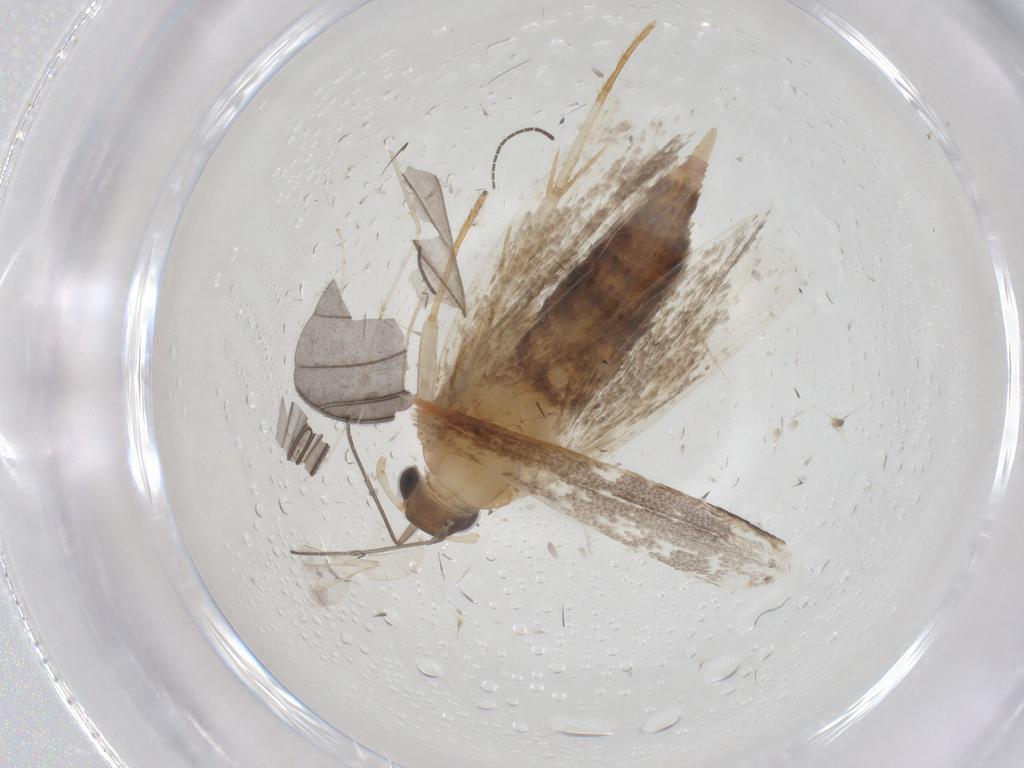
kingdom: Animalia
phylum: Arthropoda
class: Insecta
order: Lepidoptera
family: Lecithoceridae
